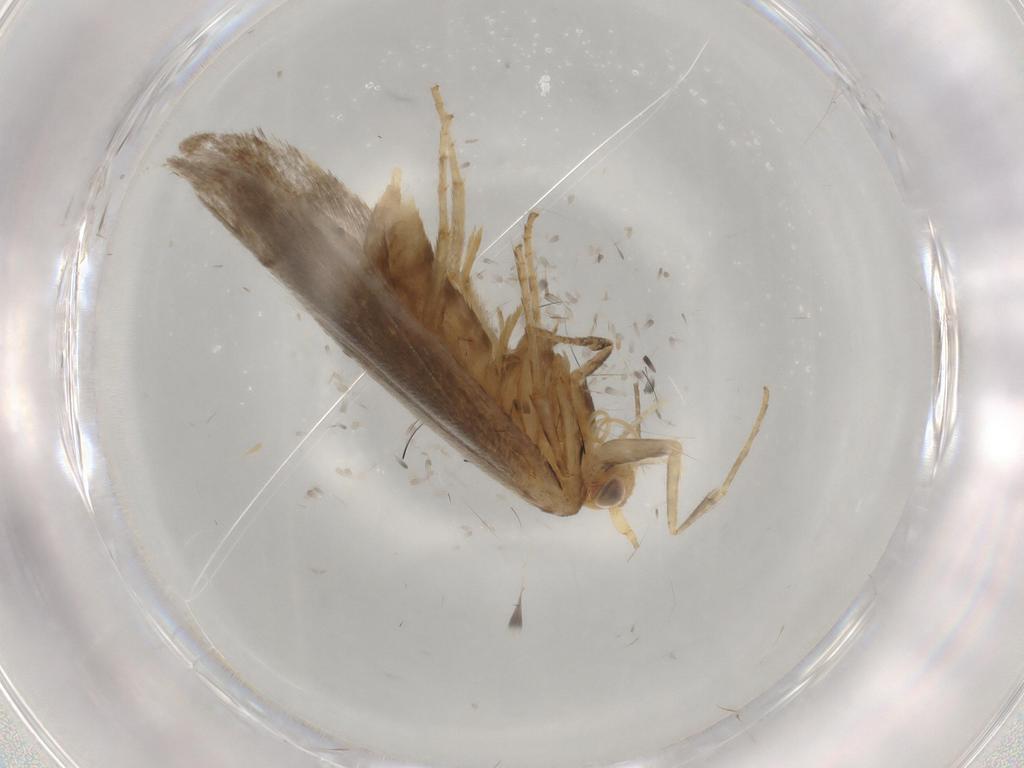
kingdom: Animalia
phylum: Arthropoda
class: Insecta
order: Lepidoptera
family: Argyresthiidae
